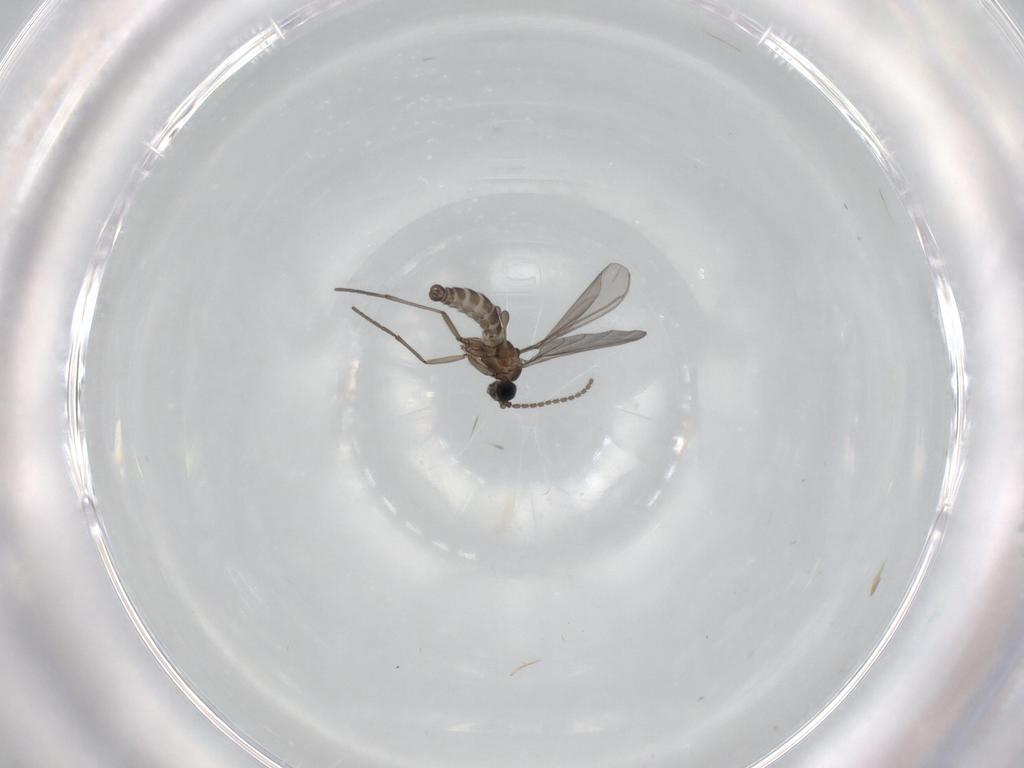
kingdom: Animalia
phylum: Arthropoda
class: Insecta
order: Diptera
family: Sciaridae
